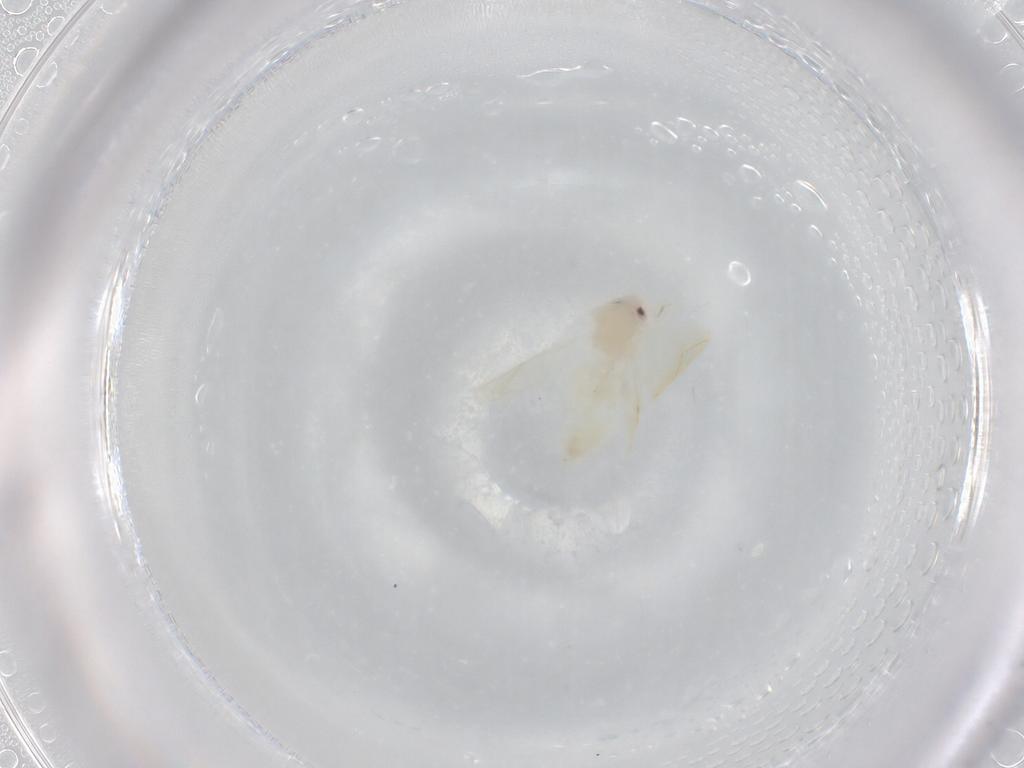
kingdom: Animalia
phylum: Arthropoda
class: Insecta
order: Hemiptera
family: Aleyrodidae
